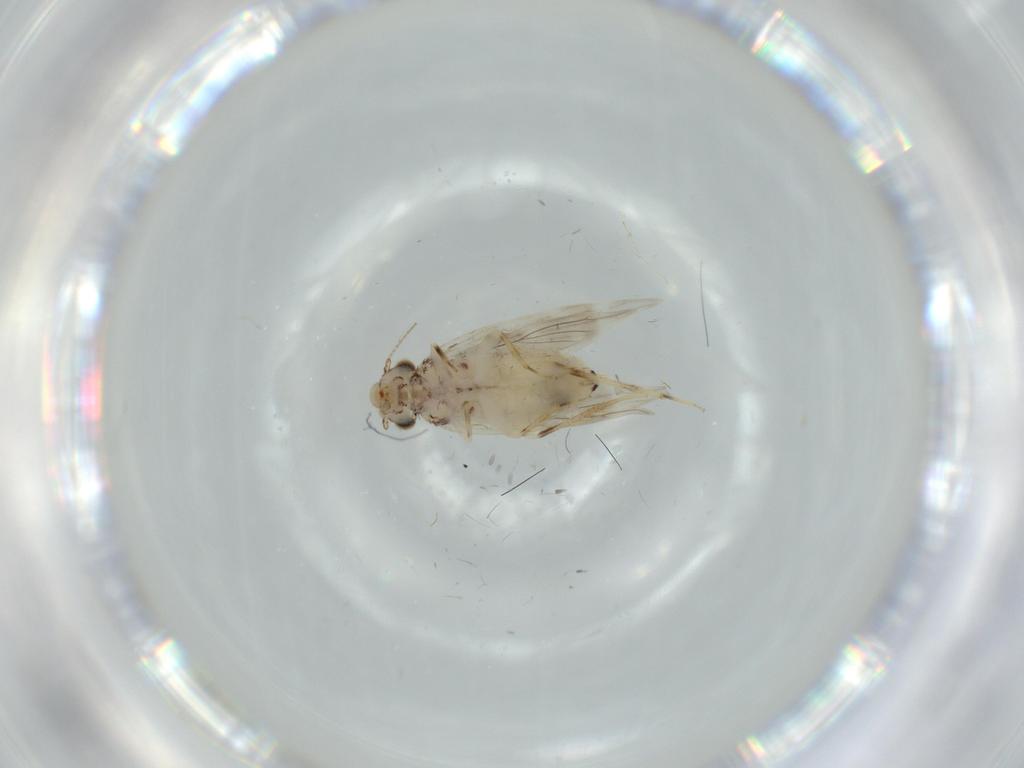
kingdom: Animalia
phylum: Arthropoda
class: Insecta
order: Psocodea
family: Lepidopsocidae
